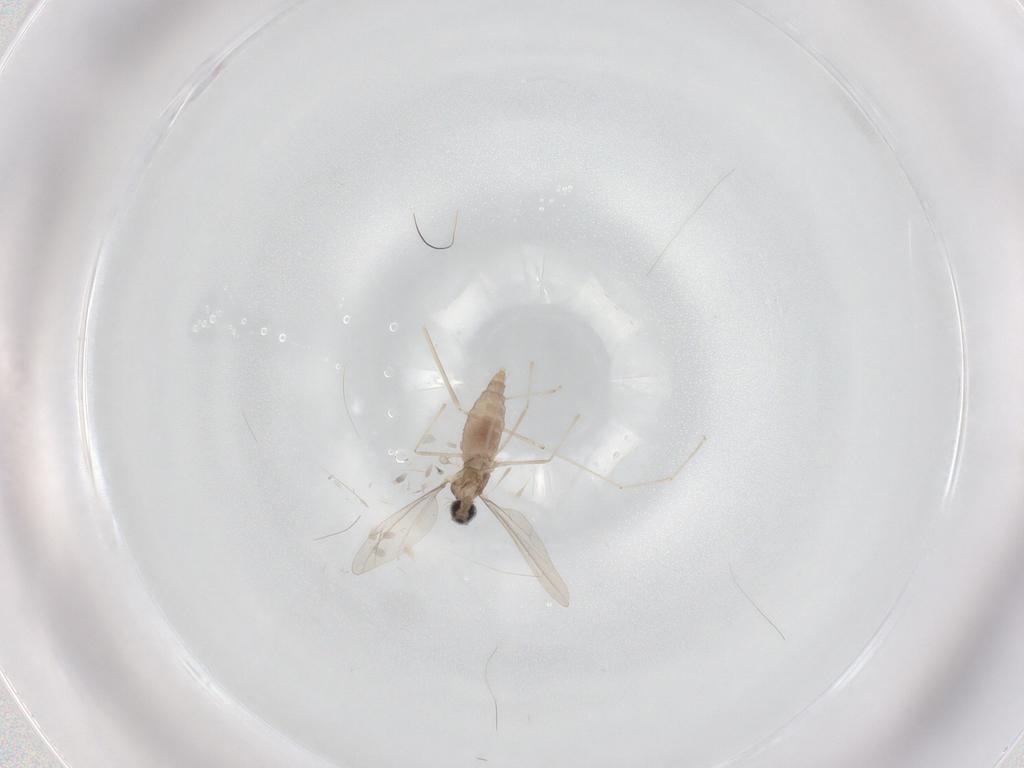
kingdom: Animalia
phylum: Arthropoda
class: Insecta
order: Diptera
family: Cecidomyiidae
